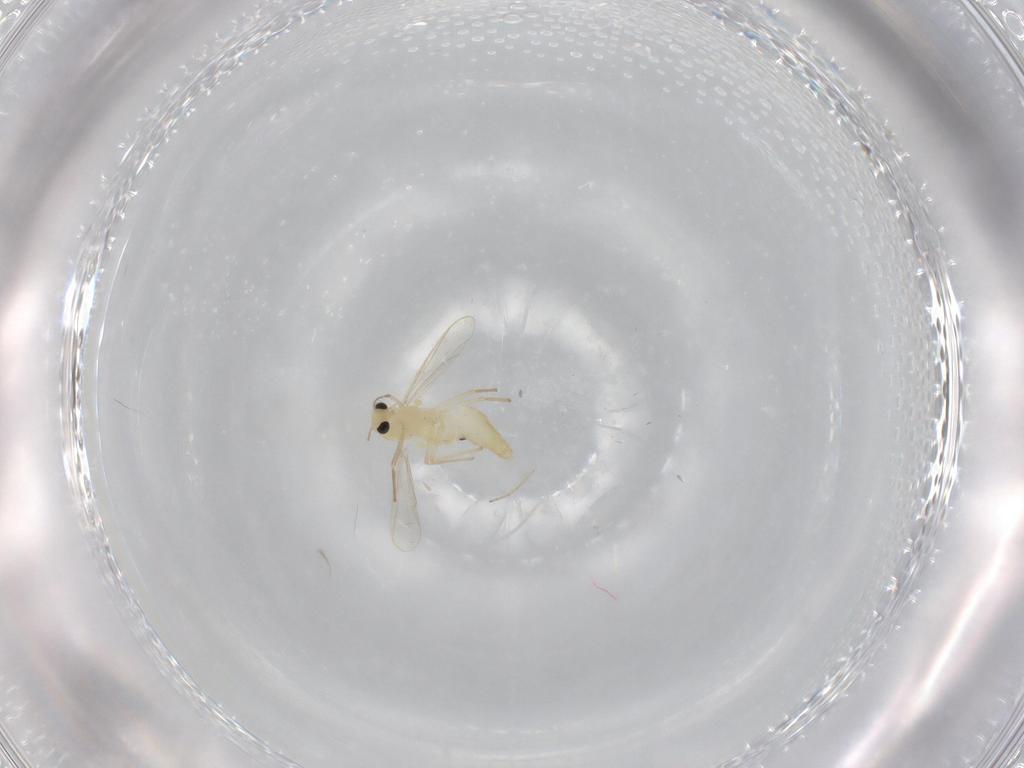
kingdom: Animalia
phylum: Arthropoda
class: Insecta
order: Diptera
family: Chironomidae
